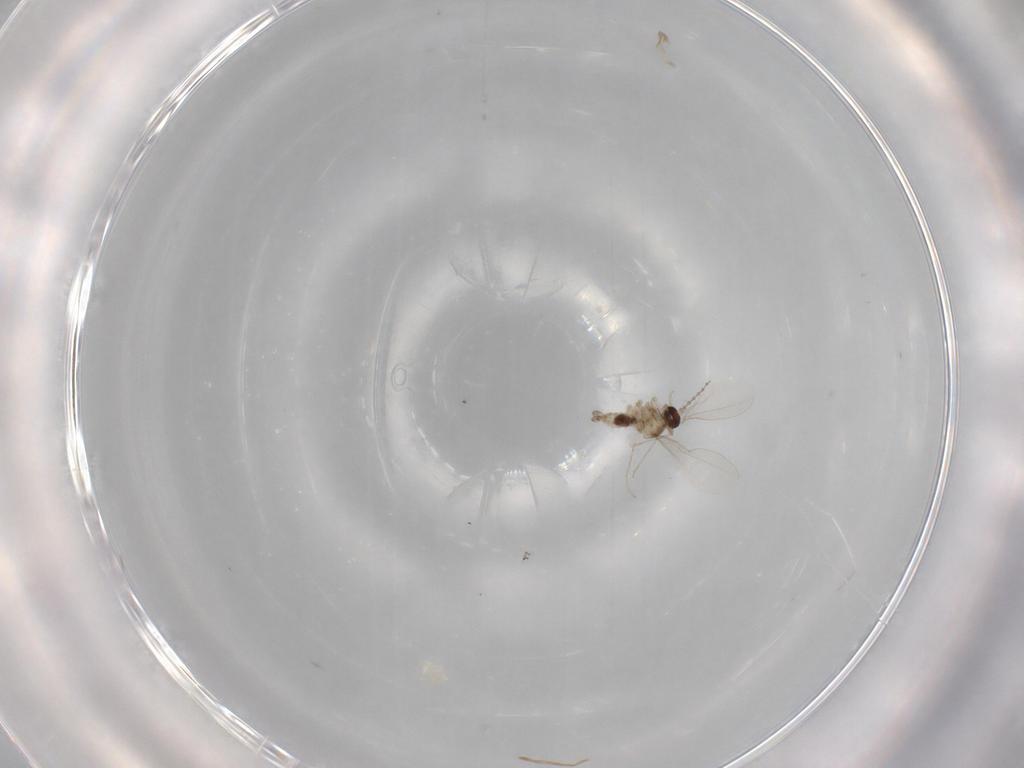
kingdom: Animalia
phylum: Arthropoda
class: Insecta
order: Diptera
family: Cecidomyiidae
